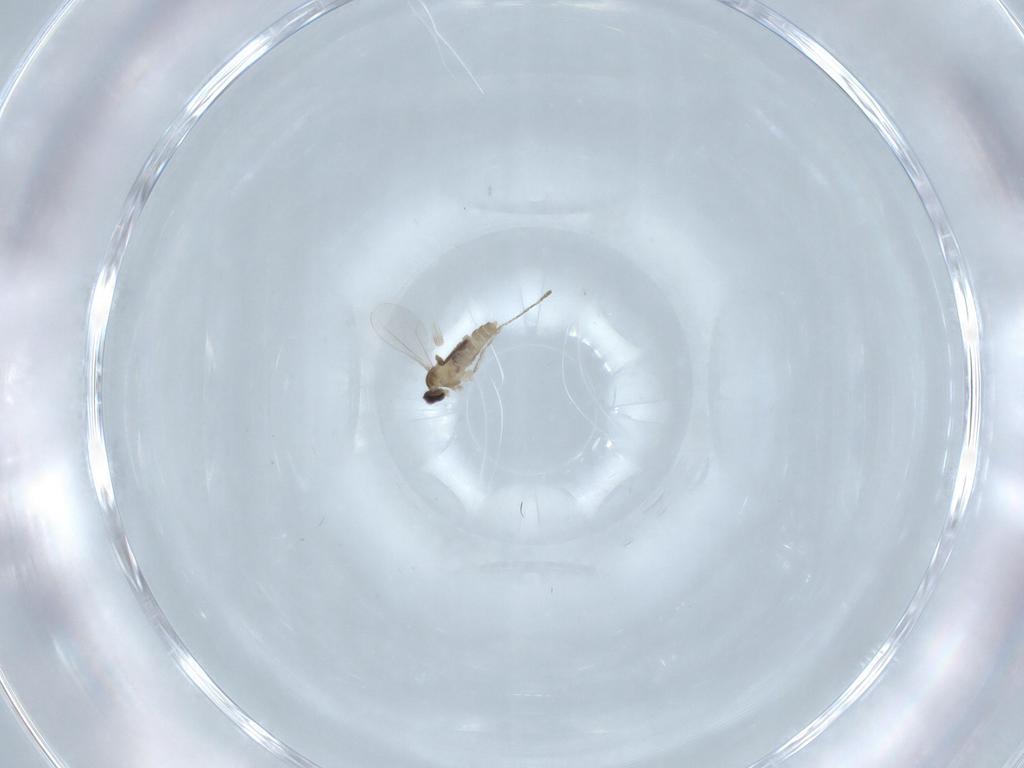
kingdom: Animalia
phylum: Arthropoda
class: Insecta
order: Diptera
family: Cecidomyiidae
